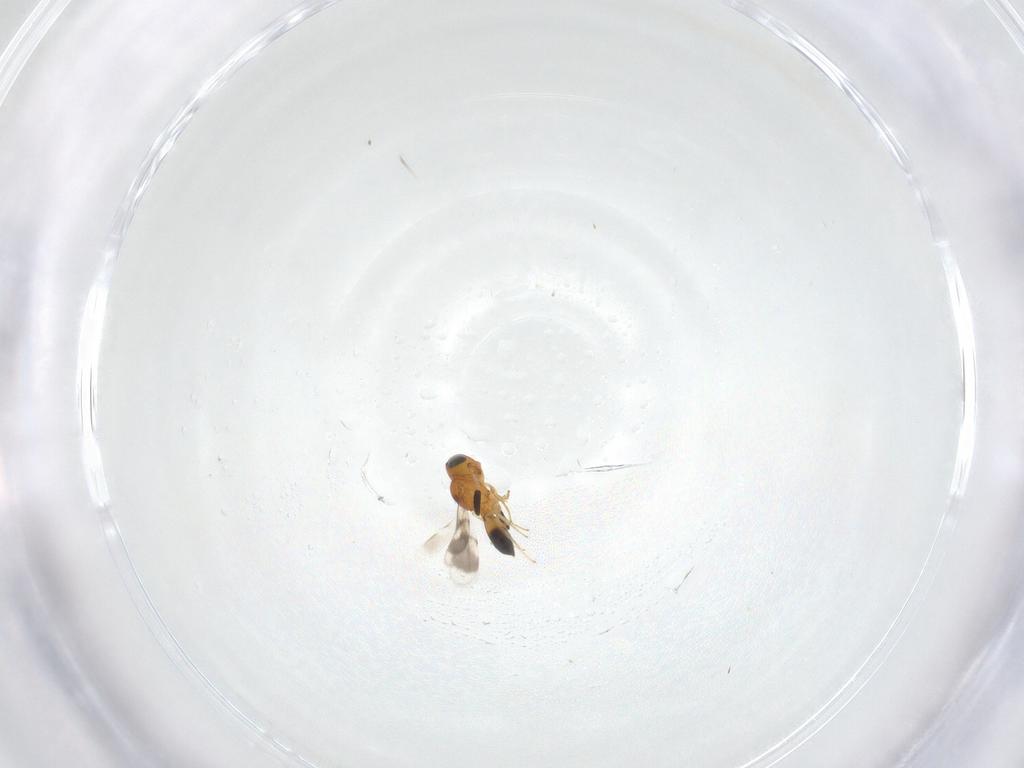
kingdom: Animalia
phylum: Arthropoda
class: Insecta
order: Hymenoptera
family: Scelionidae
